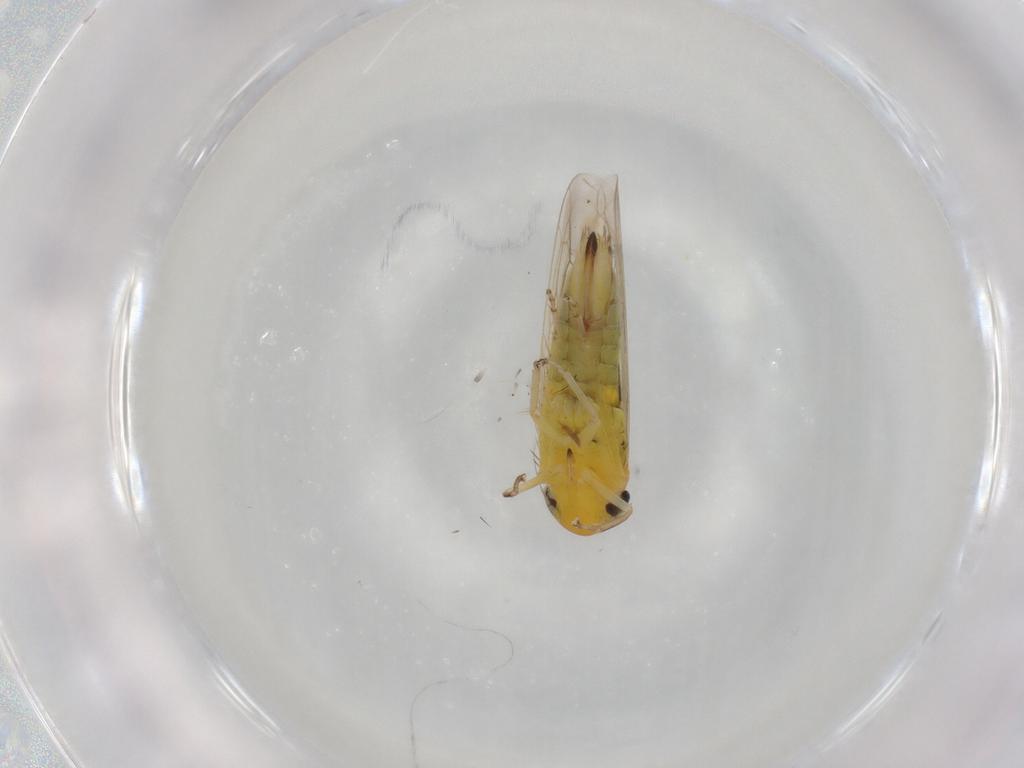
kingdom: Animalia
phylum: Arthropoda
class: Insecta
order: Hemiptera
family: Cicadellidae
